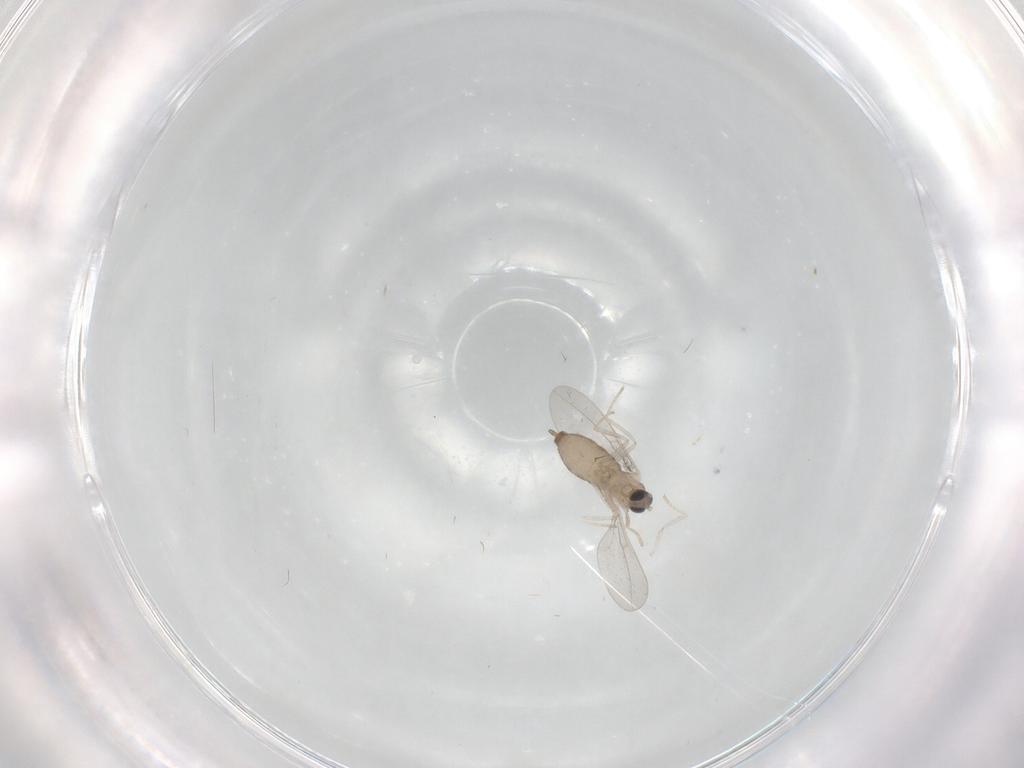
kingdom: Animalia
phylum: Arthropoda
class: Insecta
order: Diptera
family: Cecidomyiidae
